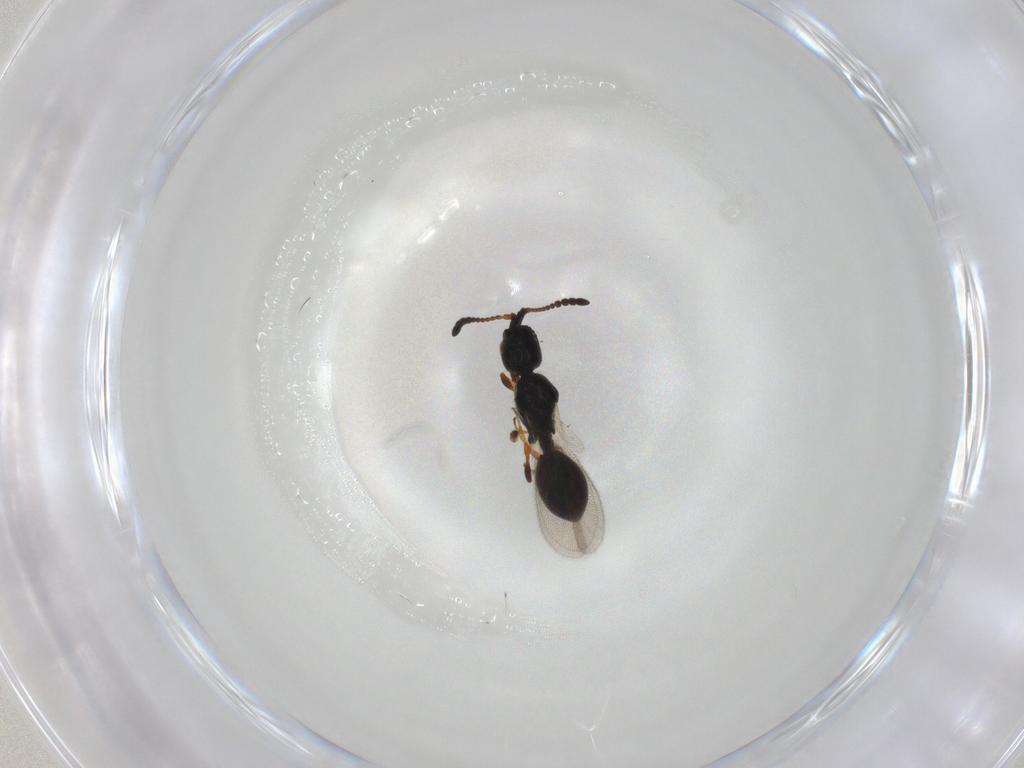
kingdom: Animalia
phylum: Arthropoda
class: Insecta
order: Hymenoptera
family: Diapriidae
